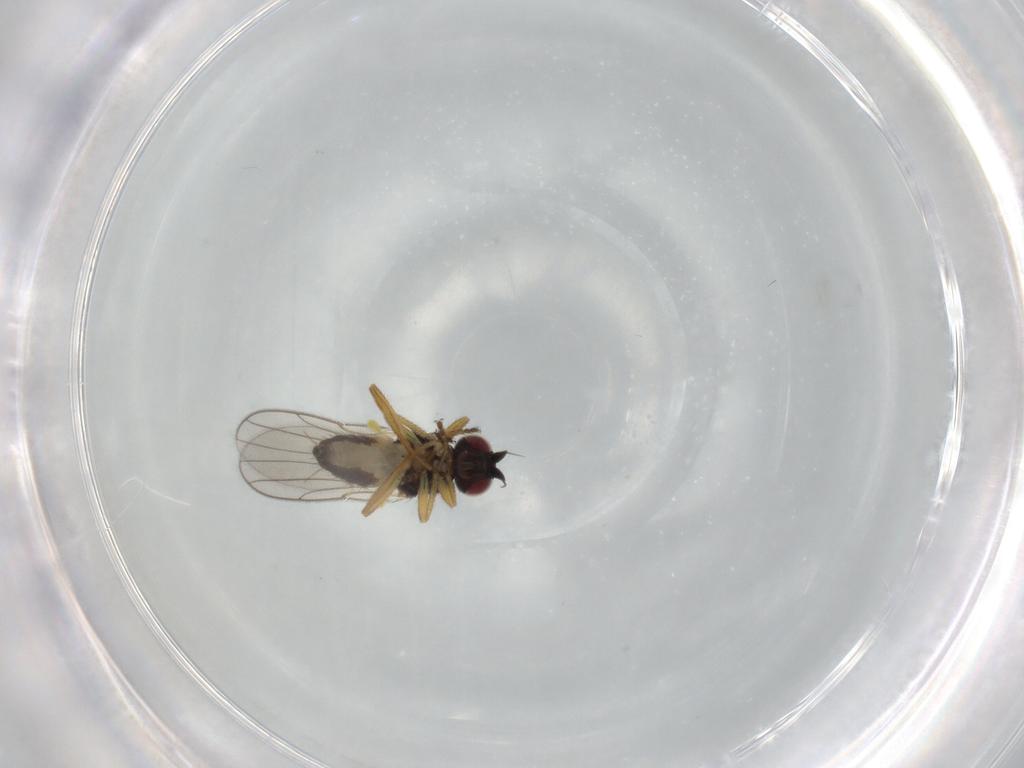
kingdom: Animalia
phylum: Arthropoda
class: Insecta
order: Diptera
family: Chloropidae
